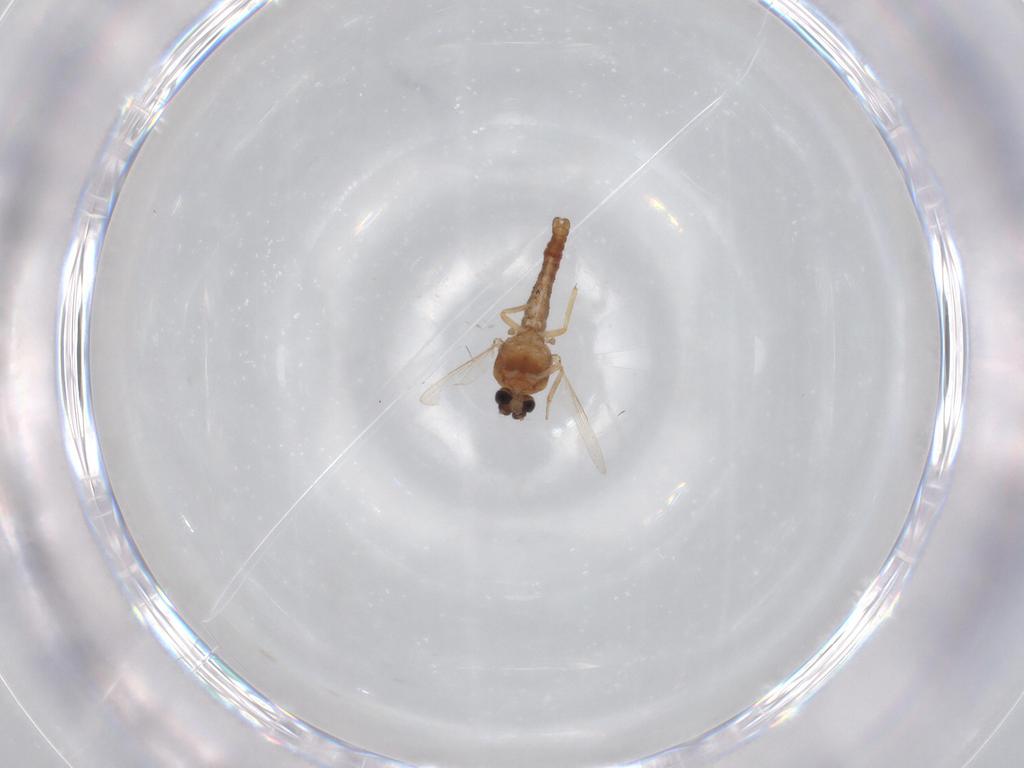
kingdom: Animalia
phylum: Arthropoda
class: Insecta
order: Diptera
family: Ceratopogonidae
